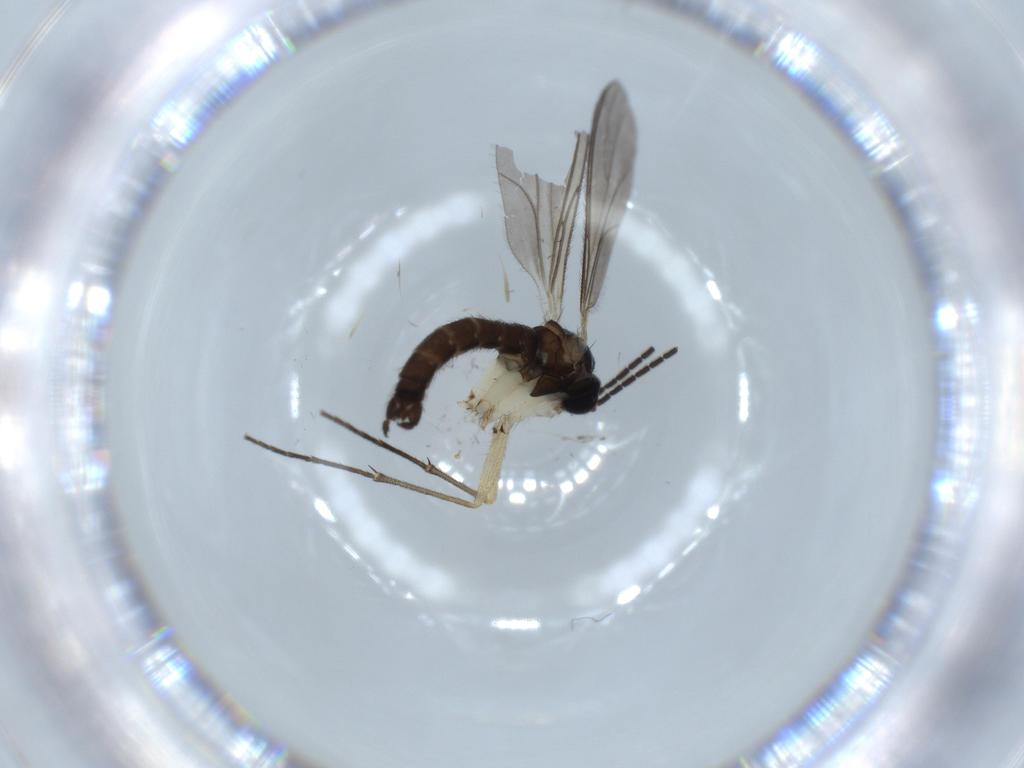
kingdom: Animalia
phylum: Arthropoda
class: Insecta
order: Diptera
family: Sciaridae
